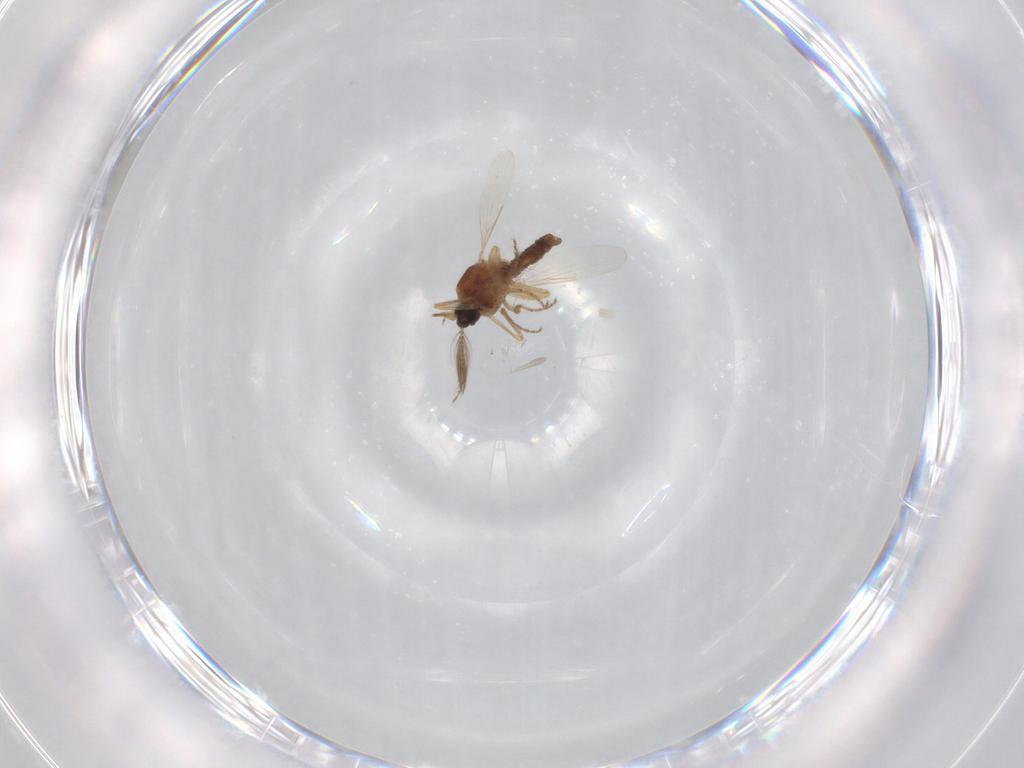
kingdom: Animalia
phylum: Arthropoda
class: Insecta
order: Diptera
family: Ceratopogonidae
